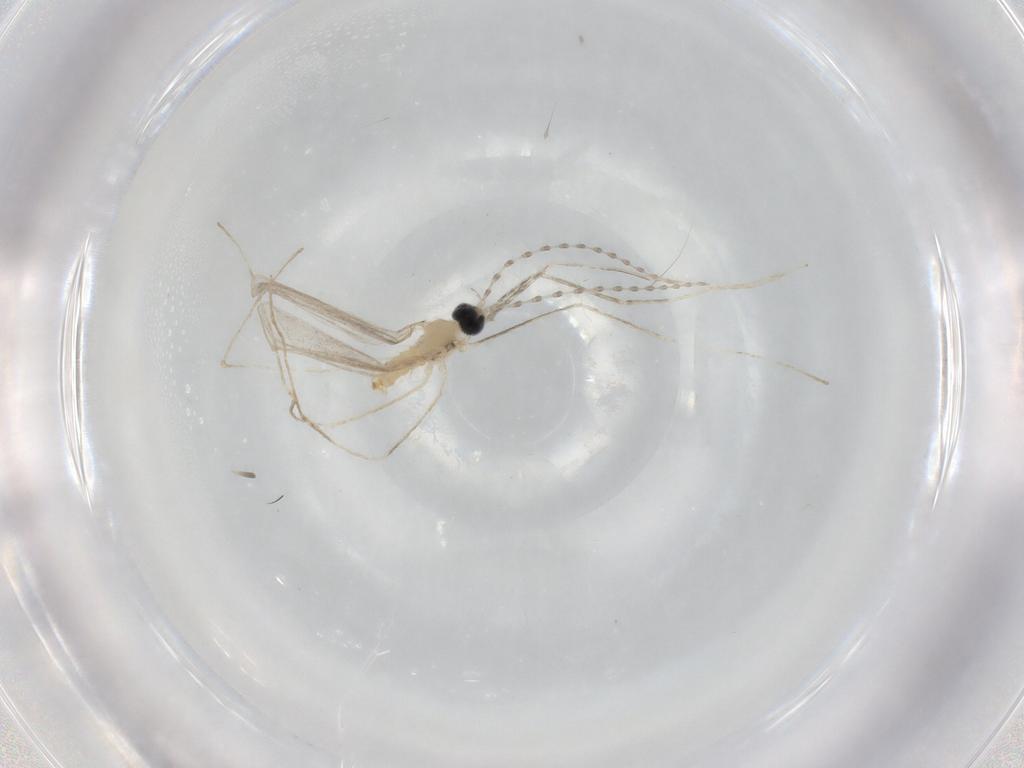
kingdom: Animalia
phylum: Arthropoda
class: Insecta
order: Diptera
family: Cecidomyiidae
